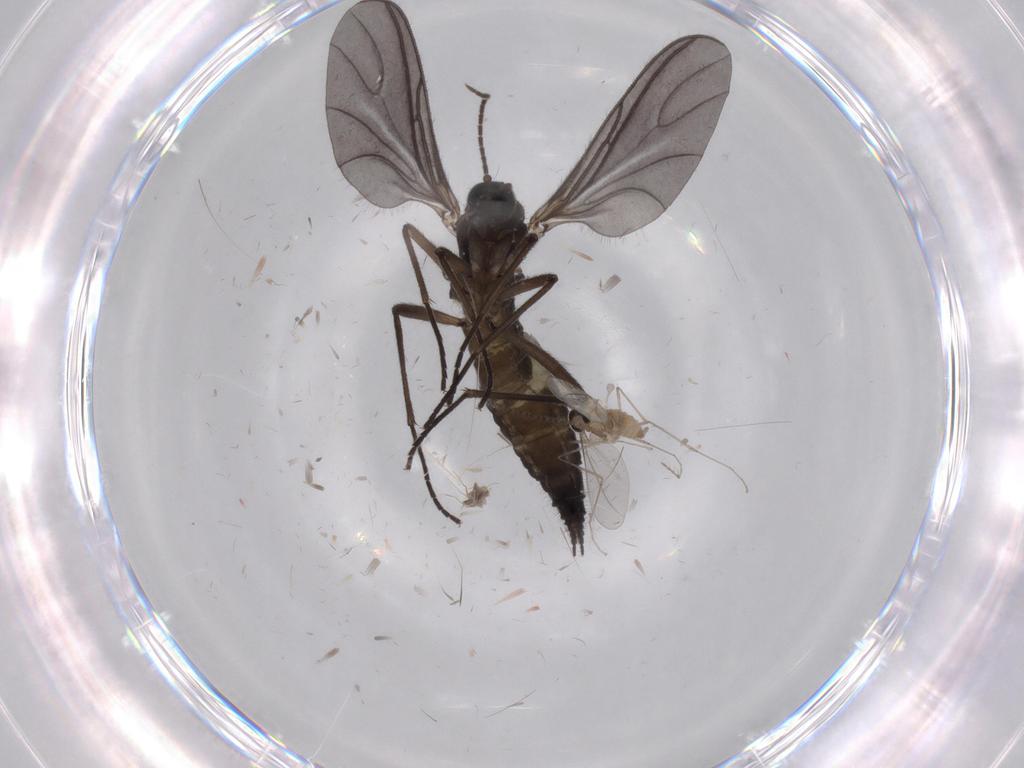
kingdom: Animalia
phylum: Arthropoda
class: Insecta
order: Diptera
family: Sciaridae
